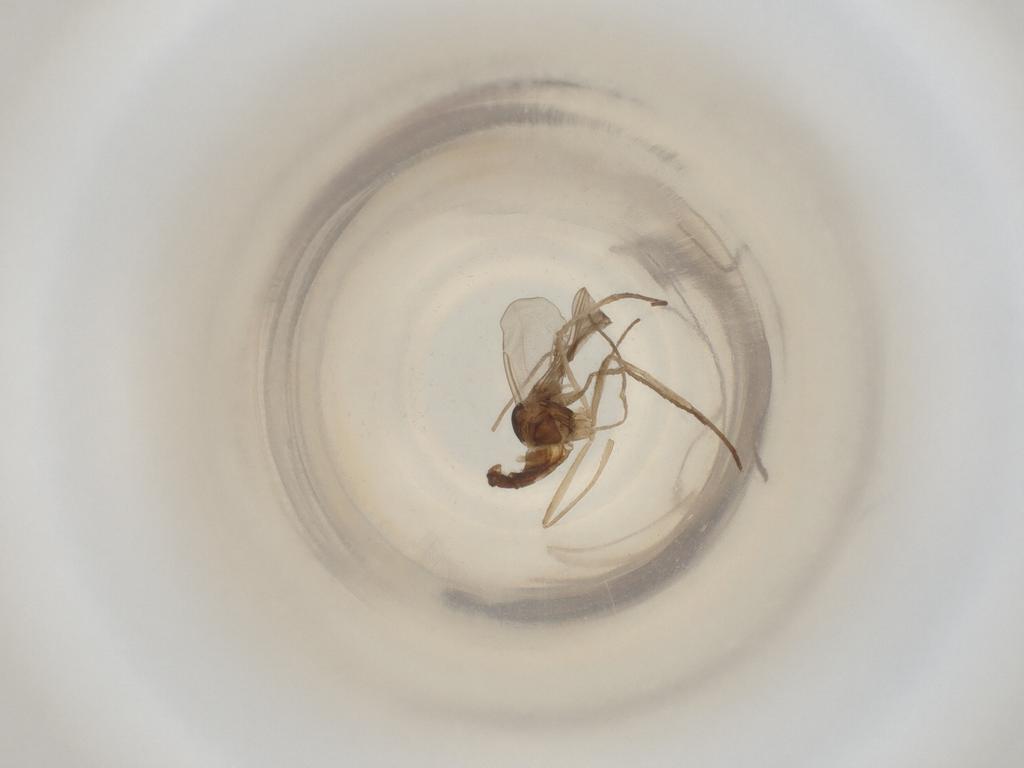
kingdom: Animalia
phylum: Arthropoda
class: Insecta
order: Diptera
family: Cecidomyiidae
